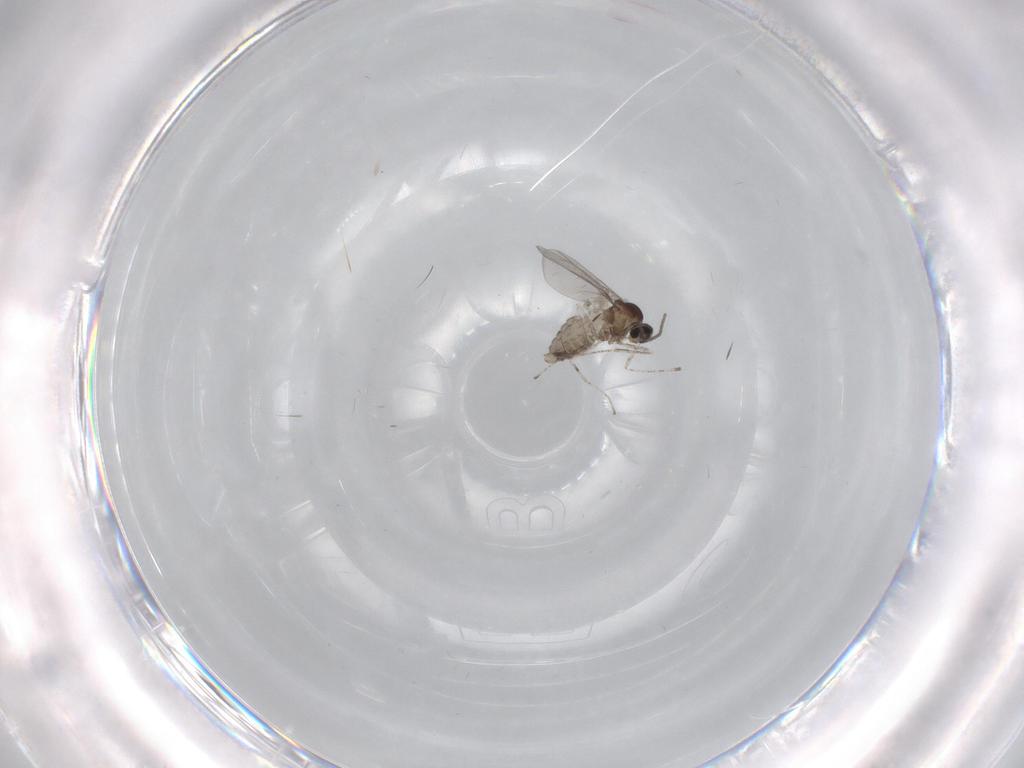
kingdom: Animalia
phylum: Arthropoda
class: Insecta
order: Diptera
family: Cecidomyiidae
